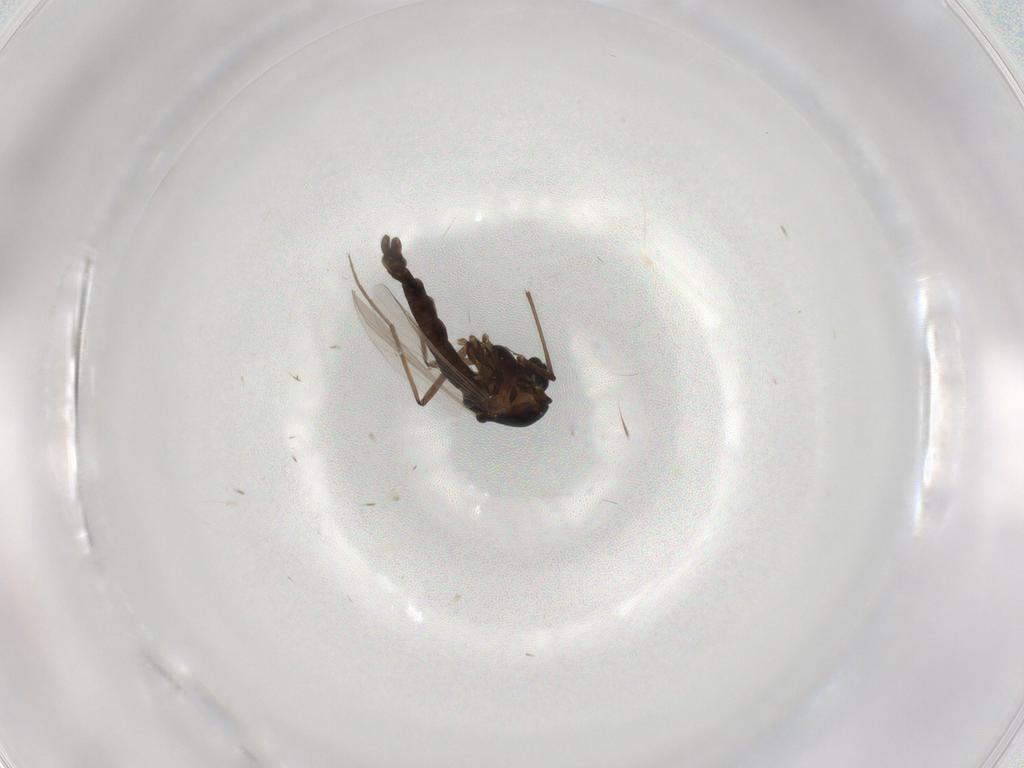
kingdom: Animalia
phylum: Arthropoda
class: Insecta
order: Diptera
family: Chironomidae
